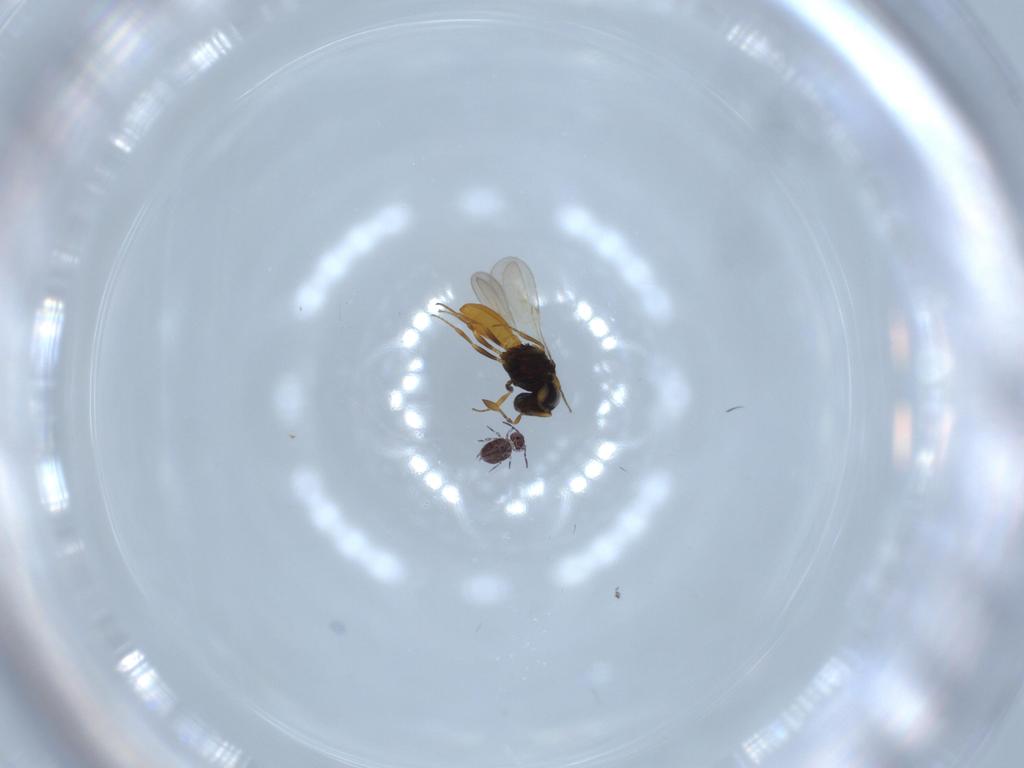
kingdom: Animalia
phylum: Arthropoda
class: Insecta
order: Hymenoptera
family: Scelionidae
